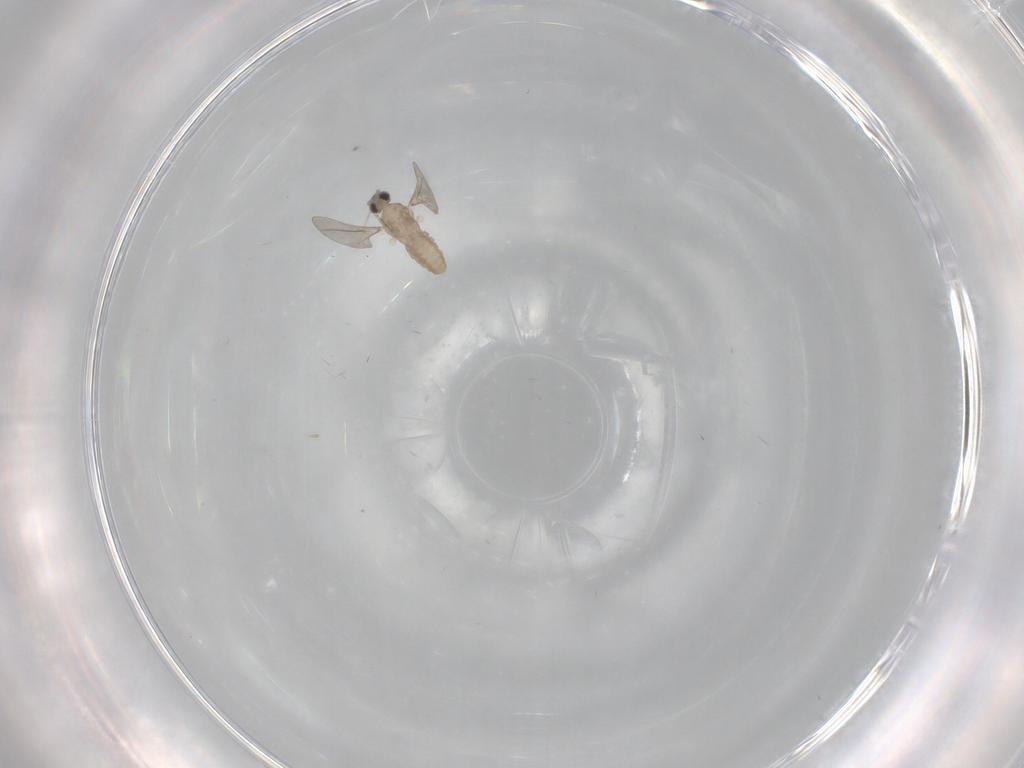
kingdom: Animalia
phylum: Arthropoda
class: Insecta
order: Diptera
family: Cecidomyiidae
